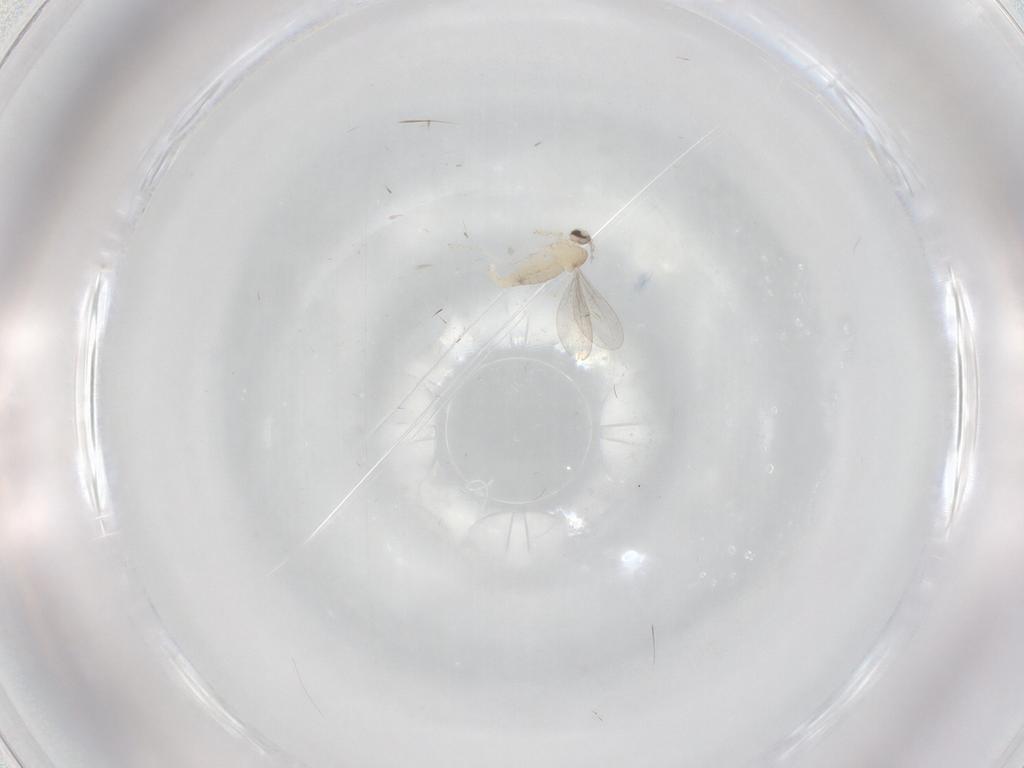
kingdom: Animalia
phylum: Arthropoda
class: Insecta
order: Diptera
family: Cecidomyiidae
